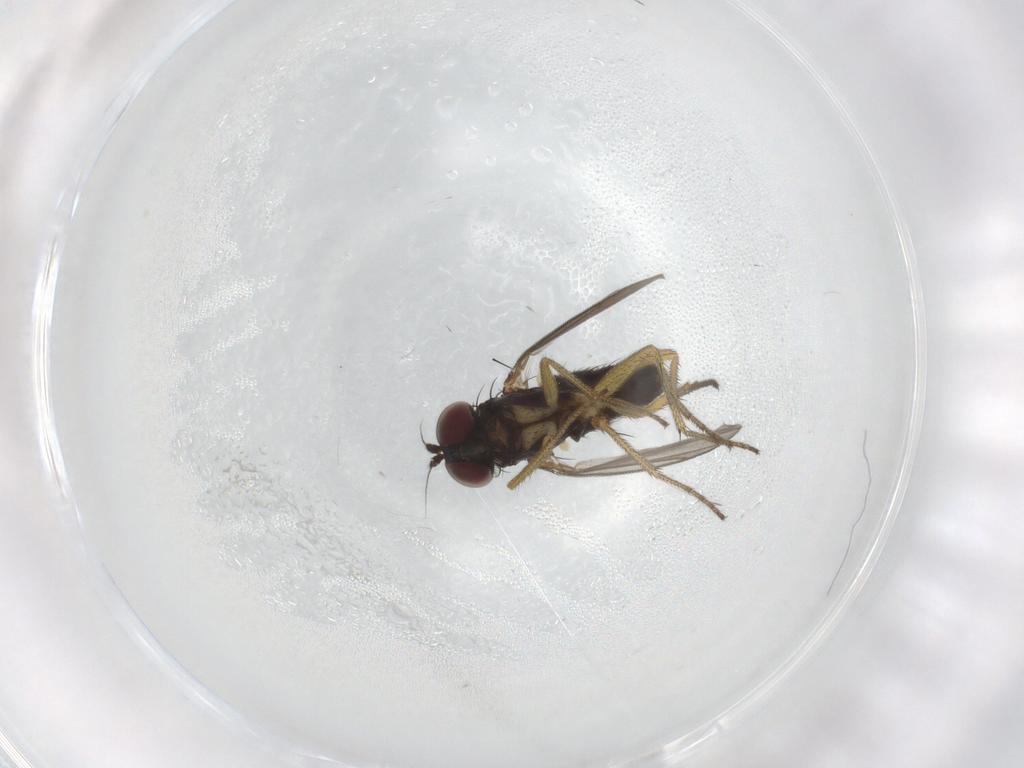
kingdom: Animalia
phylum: Arthropoda
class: Insecta
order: Diptera
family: Dolichopodidae
